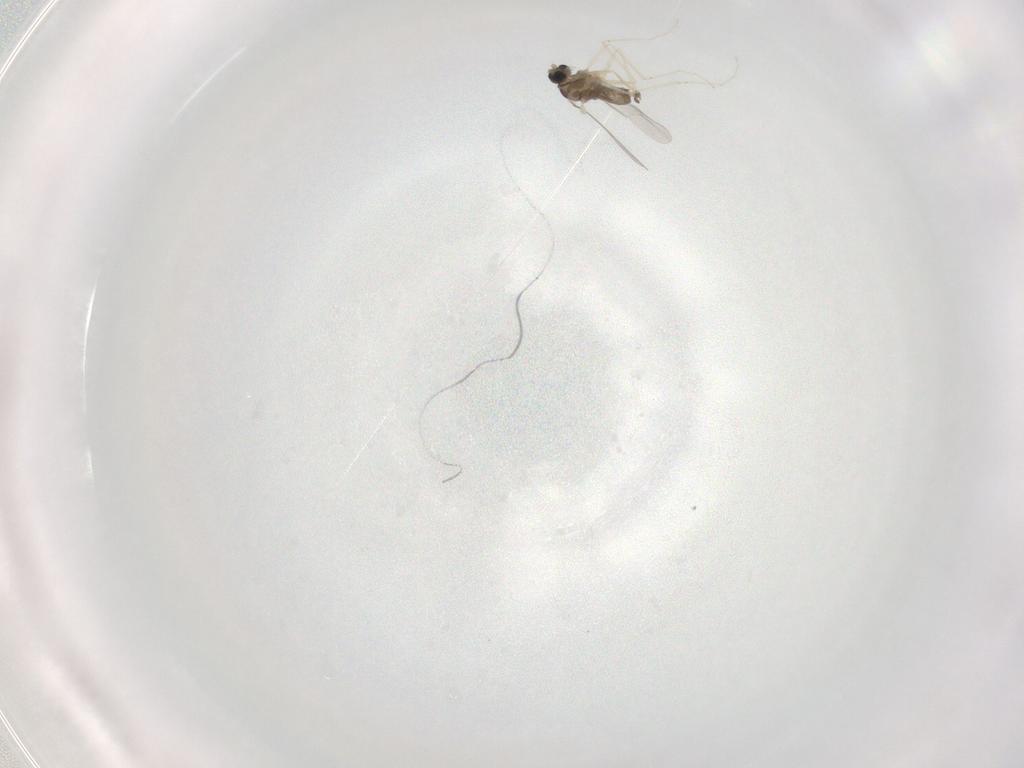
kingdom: Animalia
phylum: Arthropoda
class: Insecta
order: Diptera
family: Cecidomyiidae
